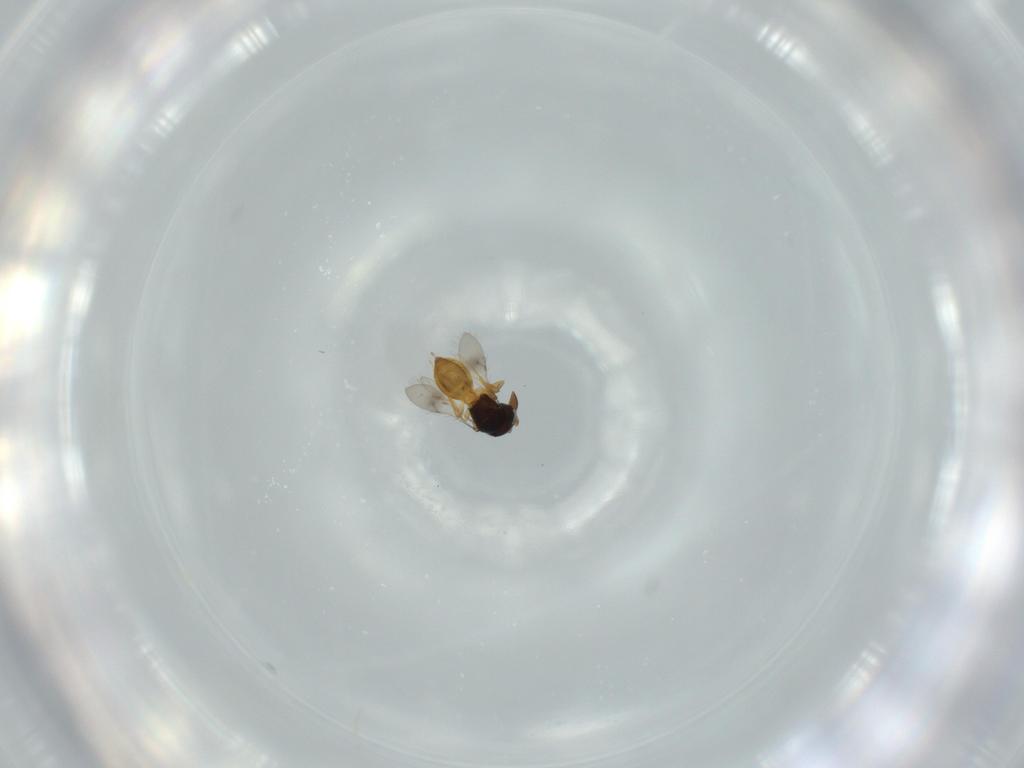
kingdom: Animalia
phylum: Arthropoda
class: Insecta
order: Hymenoptera
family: Scelionidae
